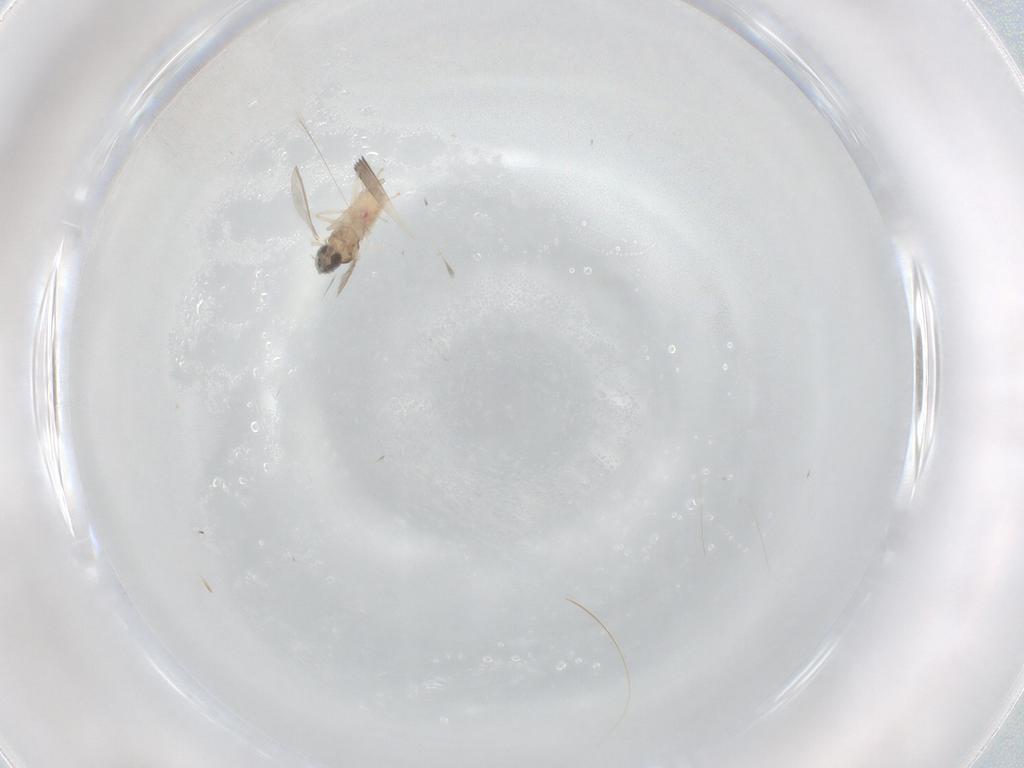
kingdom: Animalia
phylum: Arthropoda
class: Insecta
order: Diptera
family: Cecidomyiidae
